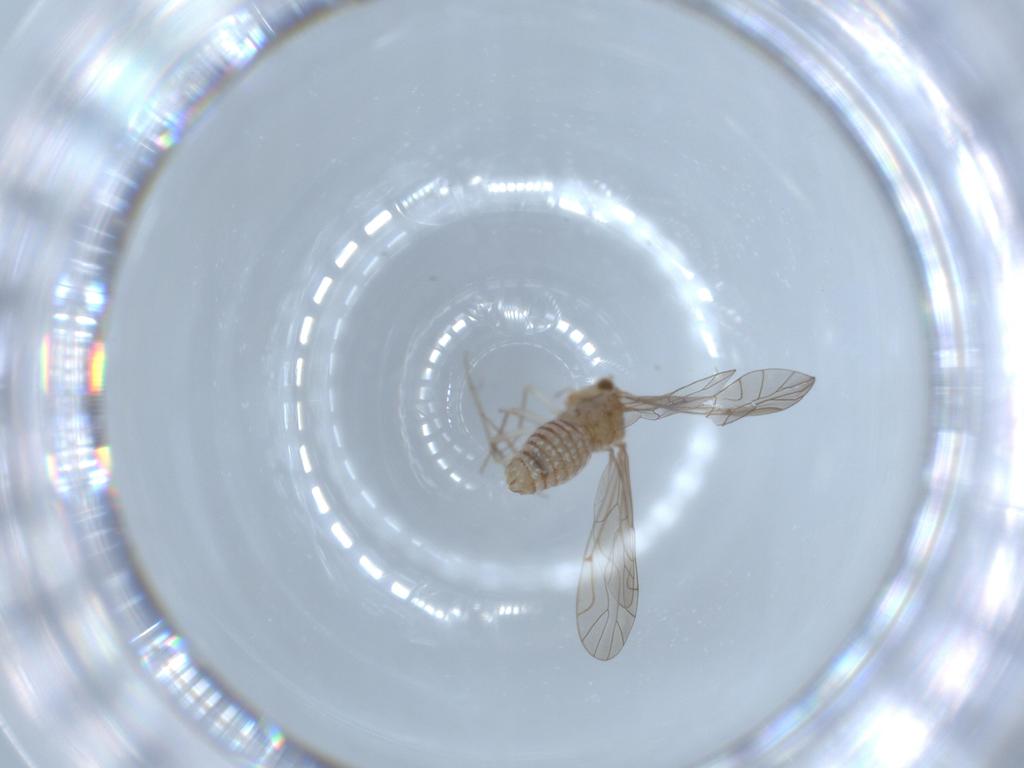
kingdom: Animalia
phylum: Arthropoda
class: Insecta
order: Psocodea
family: Lachesillidae
